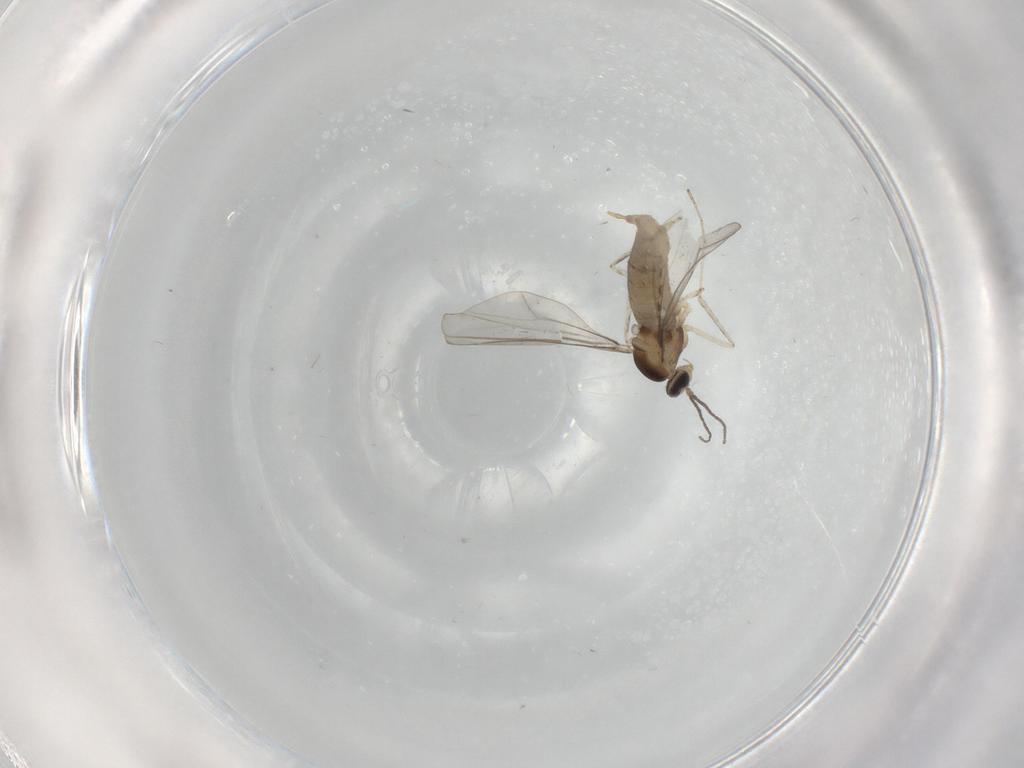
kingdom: Animalia
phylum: Arthropoda
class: Insecta
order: Diptera
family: Cecidomyiidae
